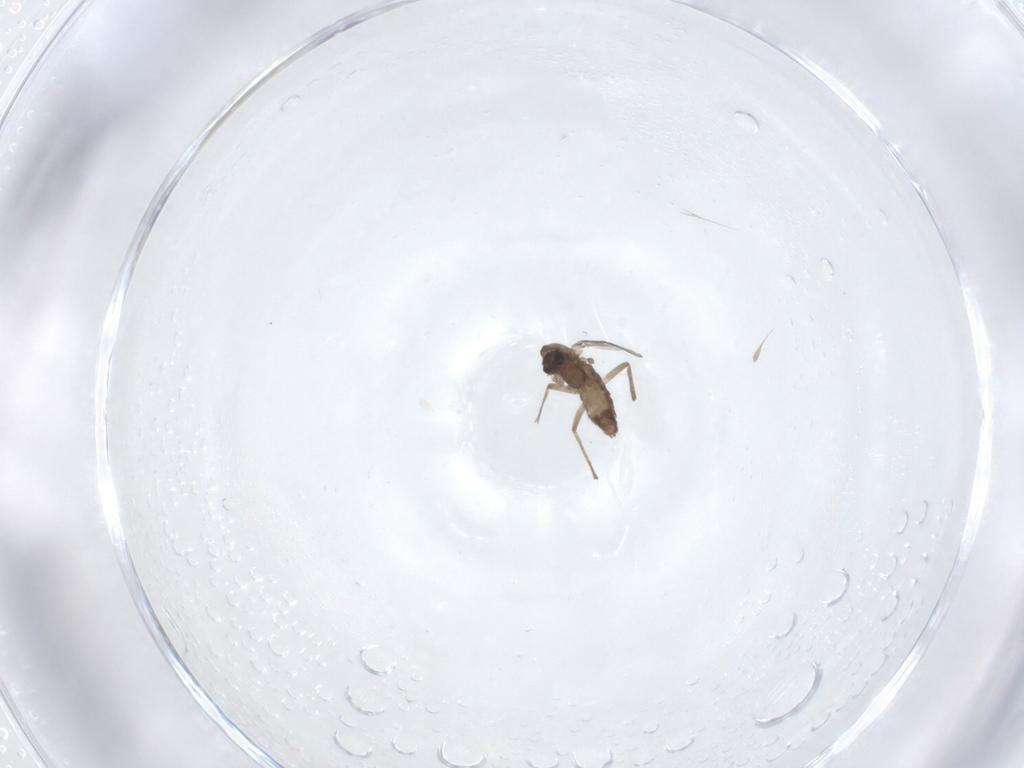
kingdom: Animalia
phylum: Arthropoda
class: Insecta
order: Diptera
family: Chironomidae
